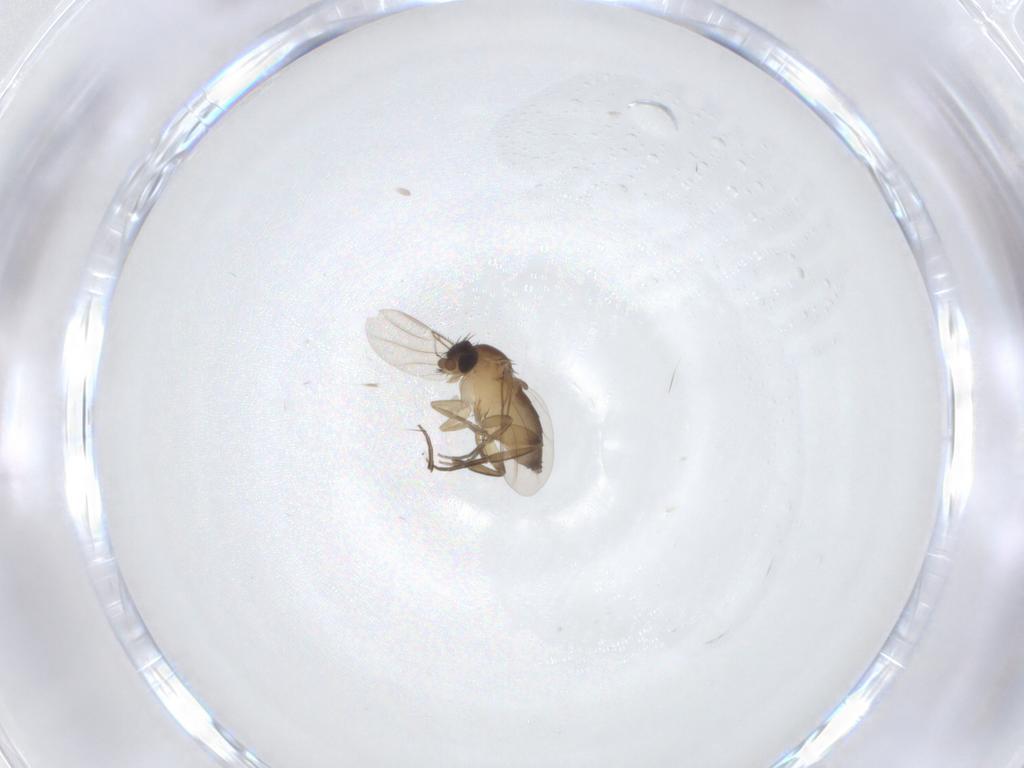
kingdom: Animalia
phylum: Arthropoda
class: Insecta
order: Diptera
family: Phoridae
